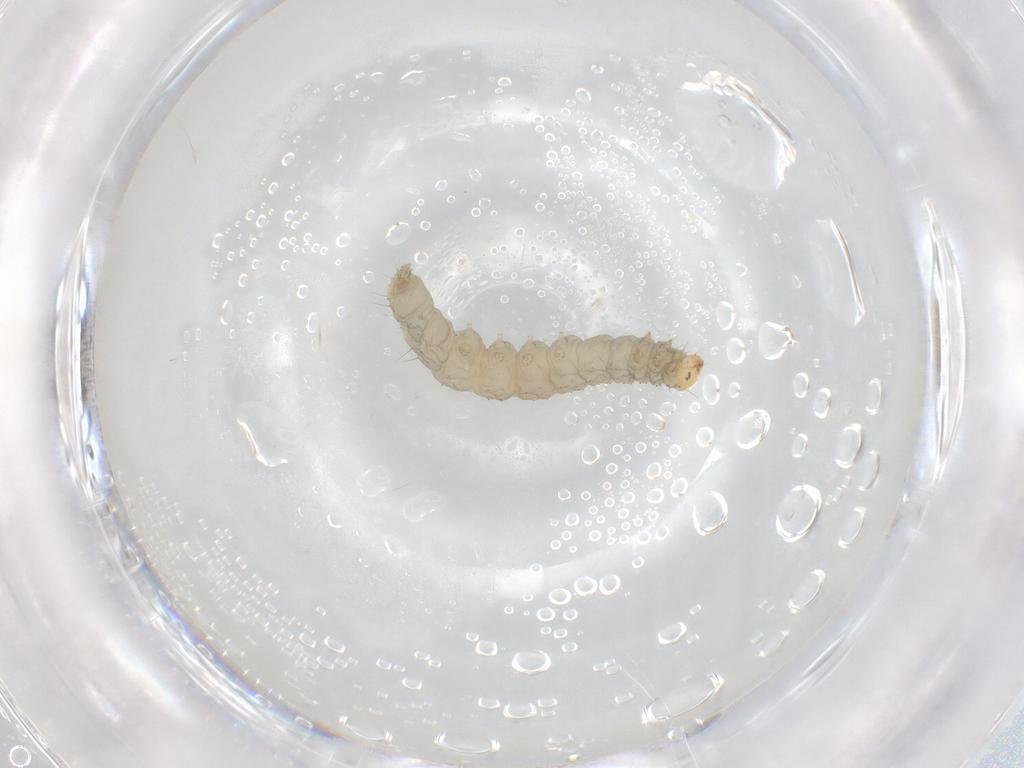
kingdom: Animalia
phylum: Arthropoda
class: Insecta
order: Lepidoptera
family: Bucculatricidae
